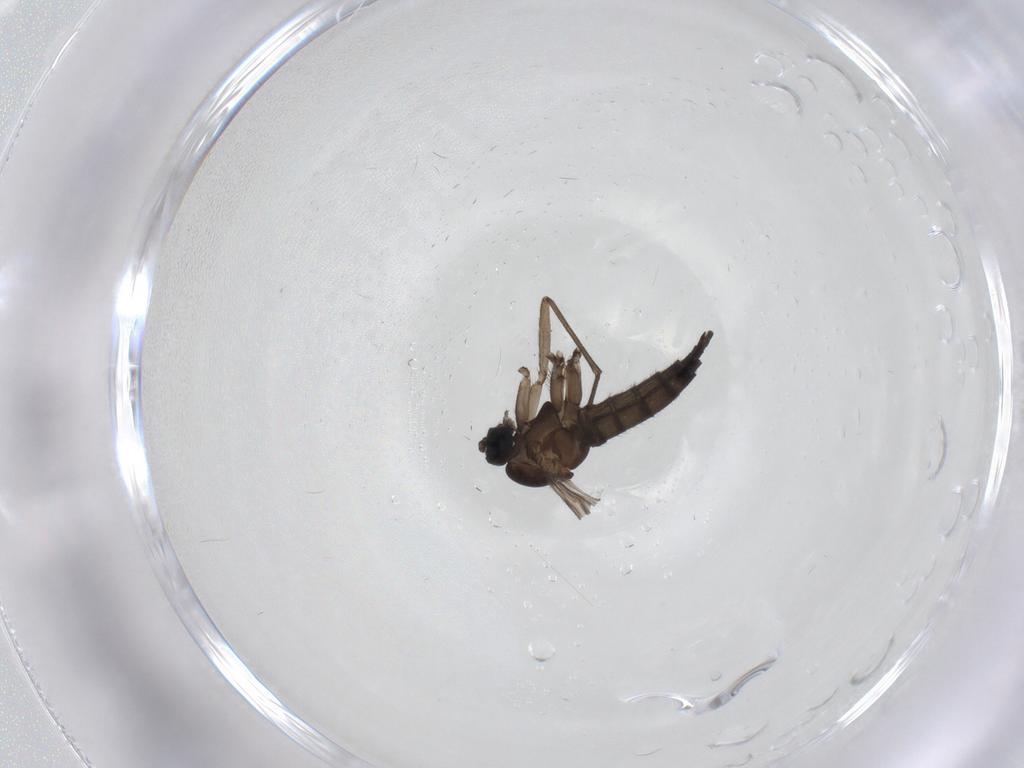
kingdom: Animalia
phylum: Arthropoda
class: Insecta
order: Diptera
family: Sciaridae
